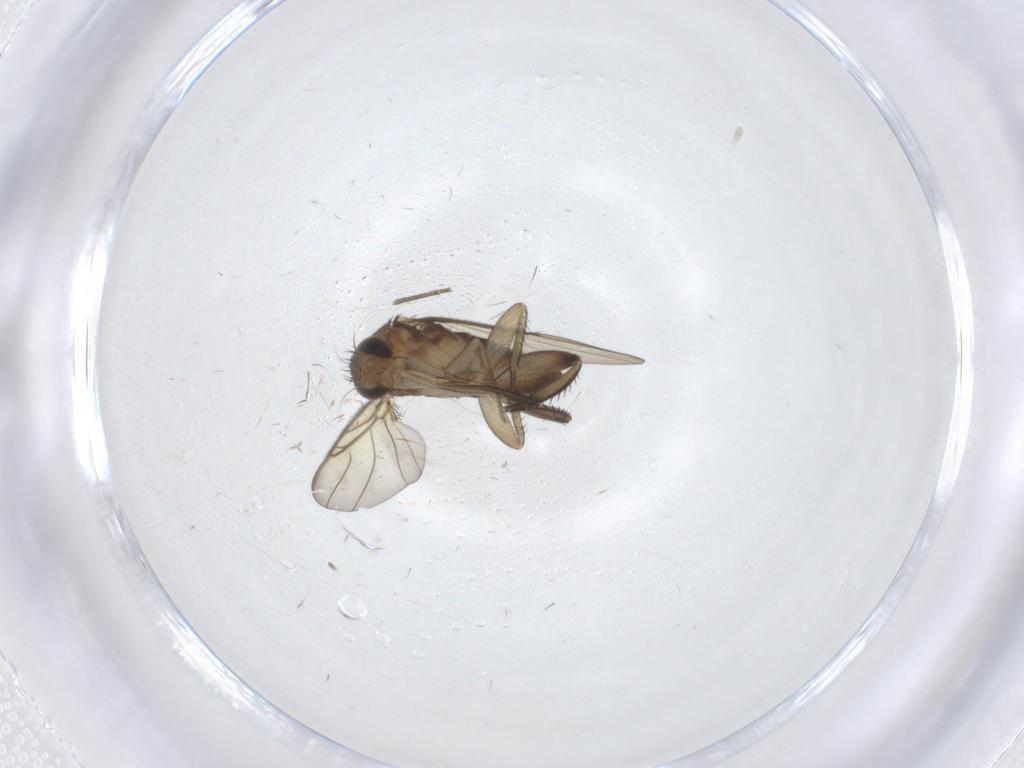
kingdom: Animalia
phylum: Arthropoda
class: Insecta
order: Diptera
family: Phoridae
